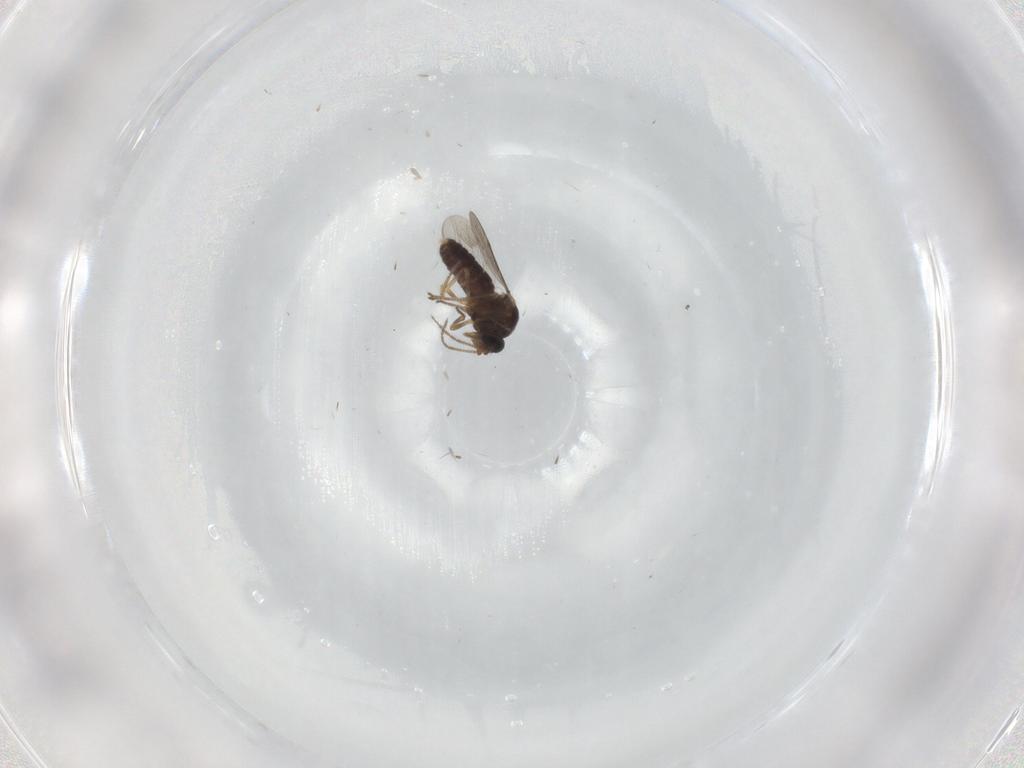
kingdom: Animalia
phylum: Arthropoda
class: Insecta
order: Diptera
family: Ceratopogonidae
